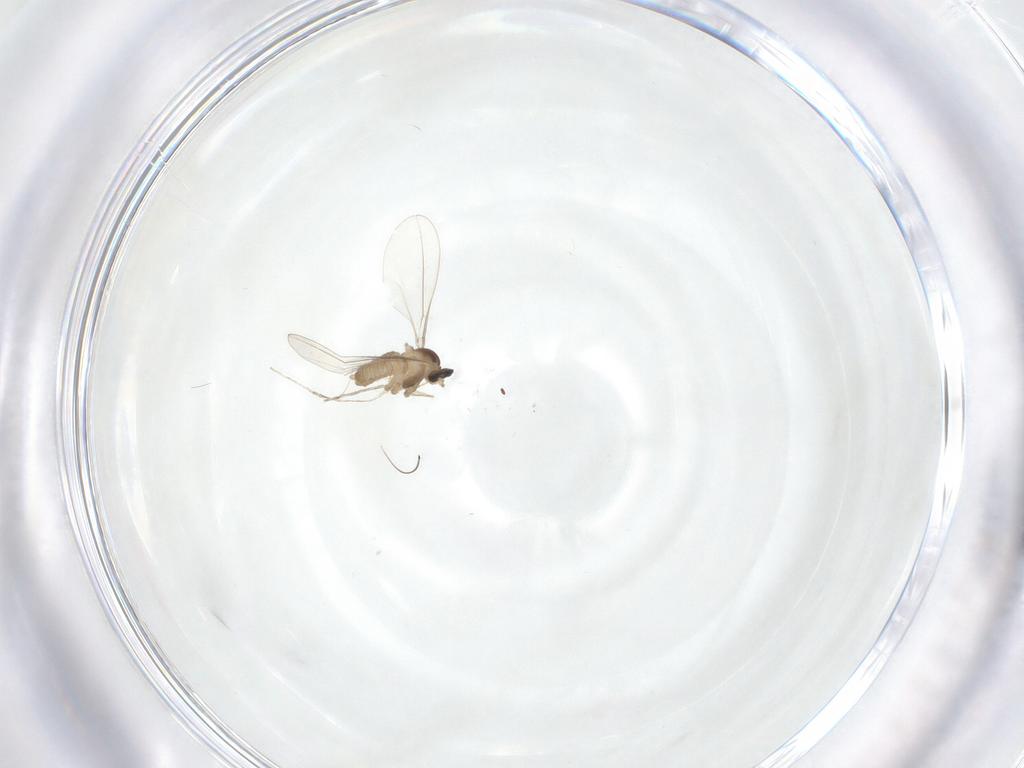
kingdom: Animalia
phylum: Arthropoda
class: Insecta
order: Diptera
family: Cecidomyiidae
